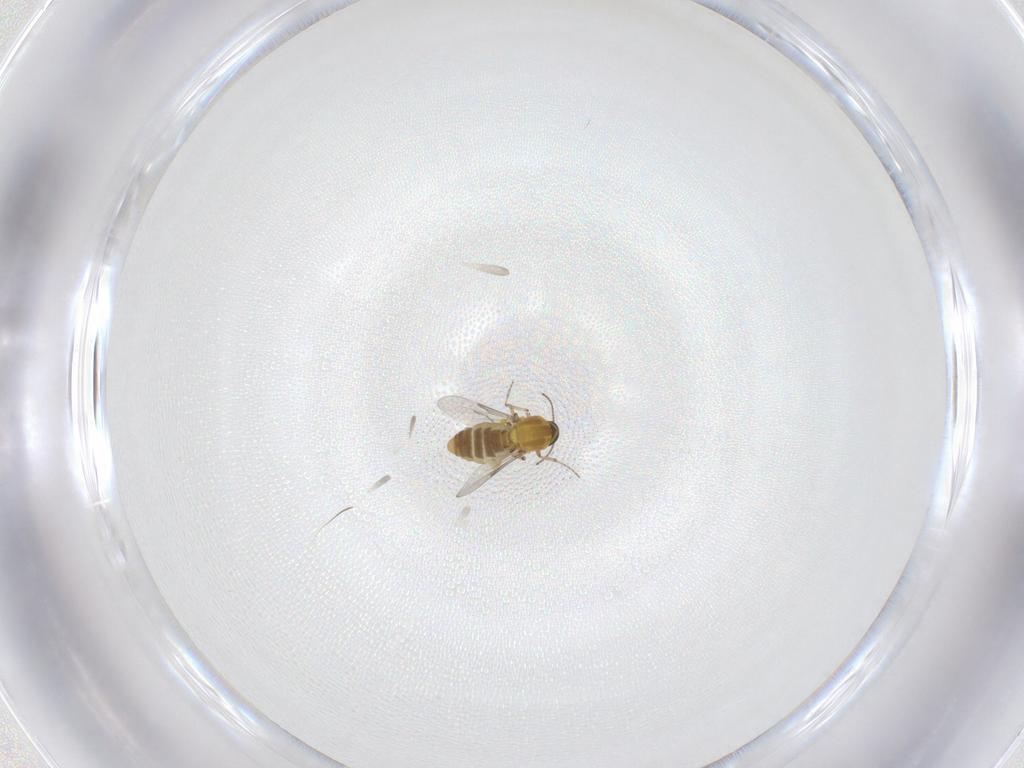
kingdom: Animalia
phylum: Arthropoda
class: Insecta
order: Diptera
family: Ceratopogonidae
